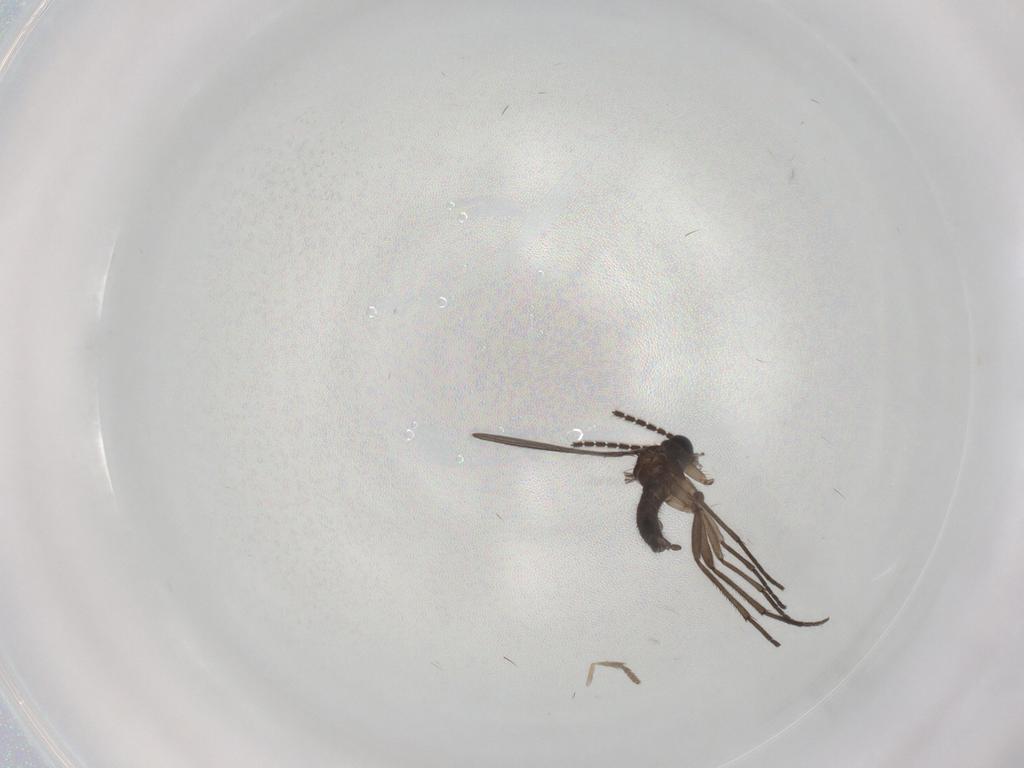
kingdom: Animalia
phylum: Arthropoda
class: Insecta
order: Diptera
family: Sciaridae
